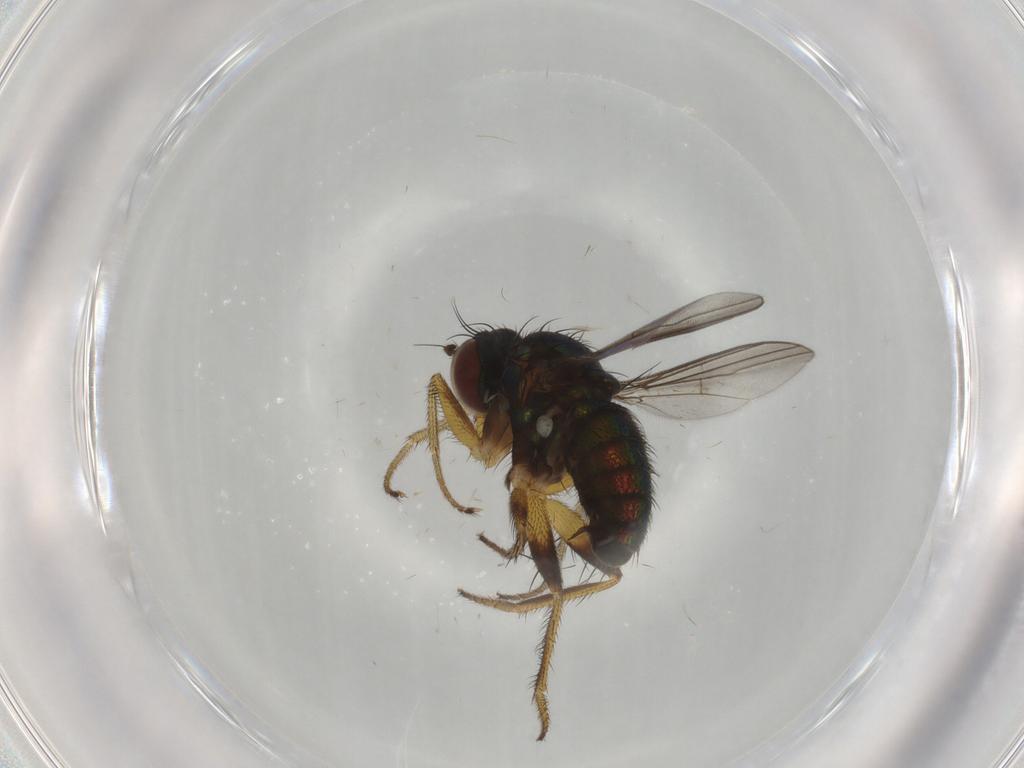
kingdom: Animalia
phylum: Arthropoda
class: Insecta
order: Diptera
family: Dolichopodidae
